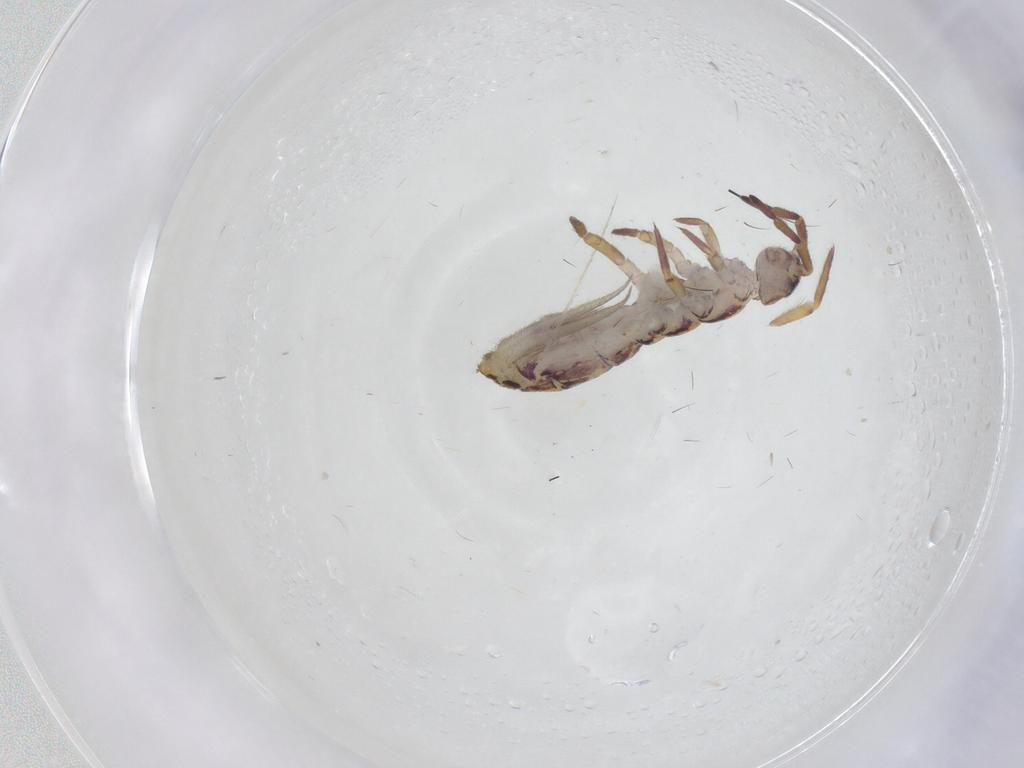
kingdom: Animalia
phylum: Arthropoda
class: Collembola
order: Entomobryomorpha
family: Isotomidae
